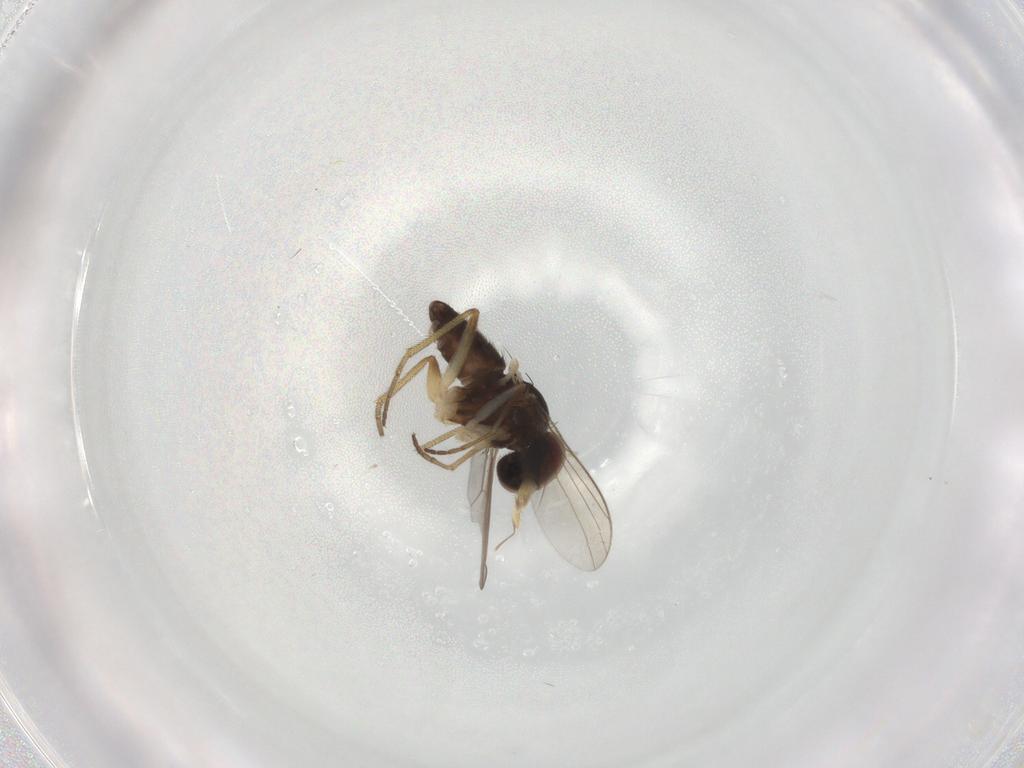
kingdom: Animalia
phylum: Arthropoda
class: Insecta
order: Diptera
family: Dolichopodidae
